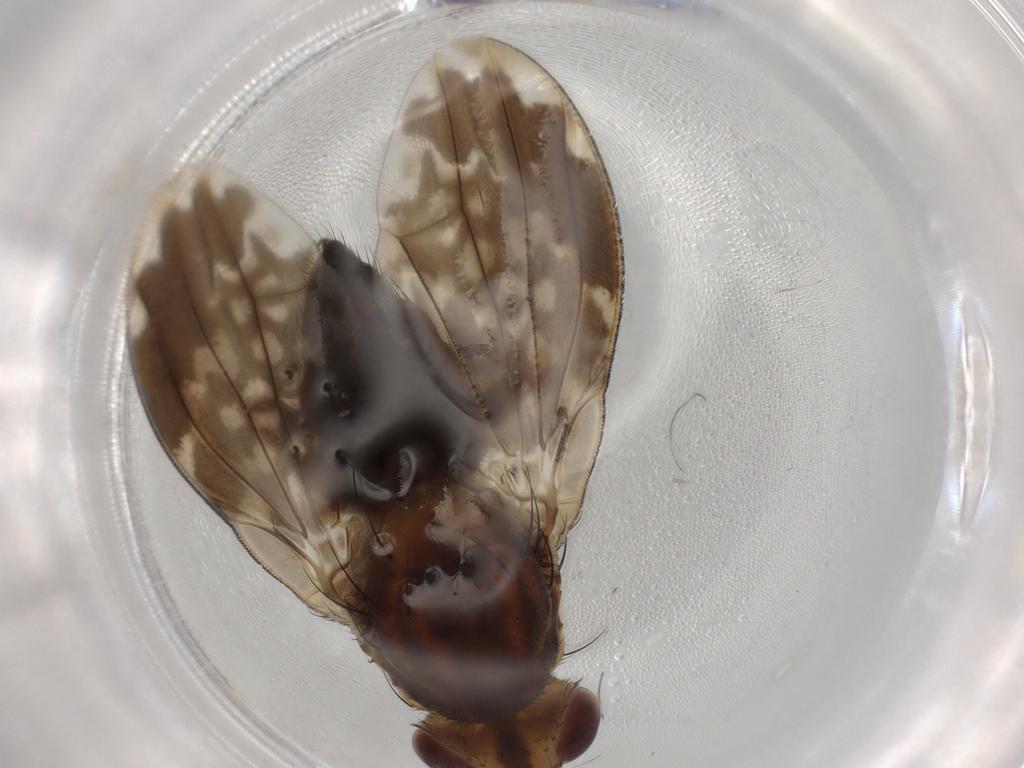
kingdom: Animalia
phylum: Arthropoda
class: Insecta
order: Diptera
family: Lauxaniidae
